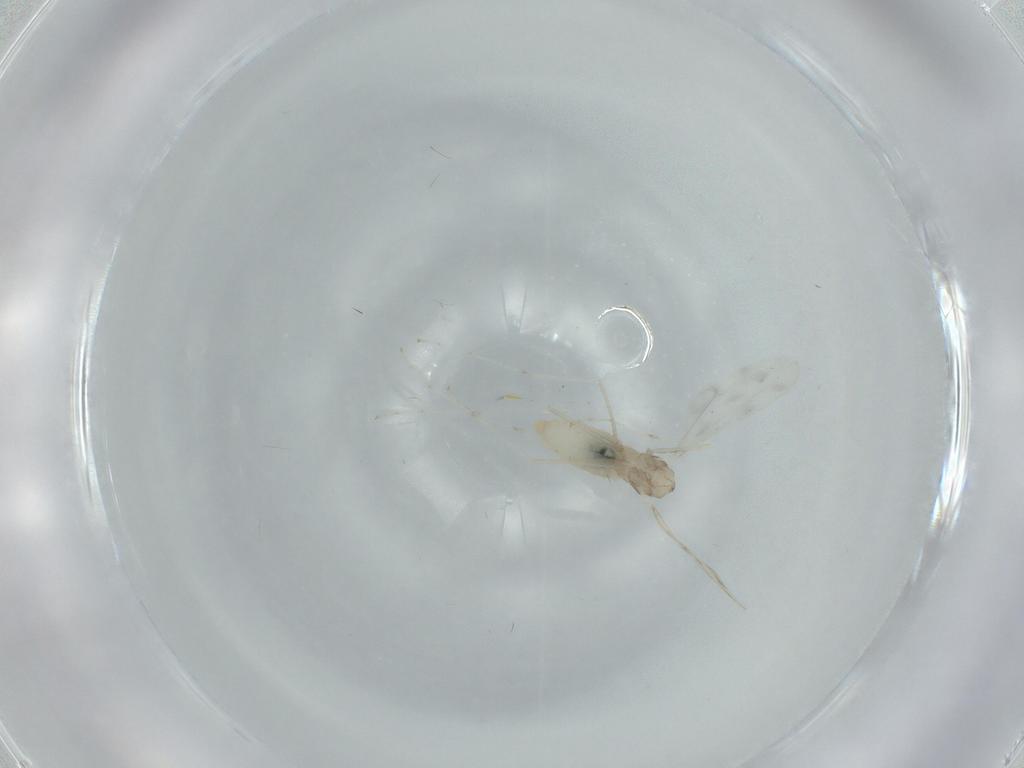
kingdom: Animalia
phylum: Arthropoda
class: Insecta
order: Diptera
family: Cecidomyiidae
